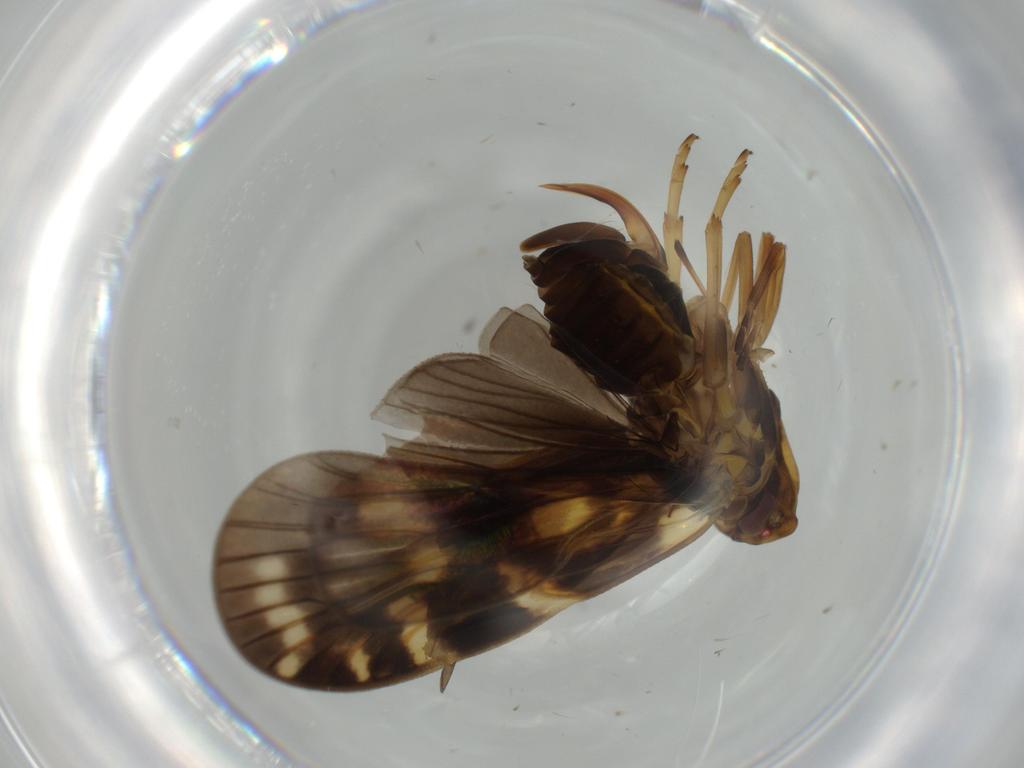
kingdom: Animalia
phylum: Arthropoda
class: Insecta
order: Hemiptera
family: Cixiidae
